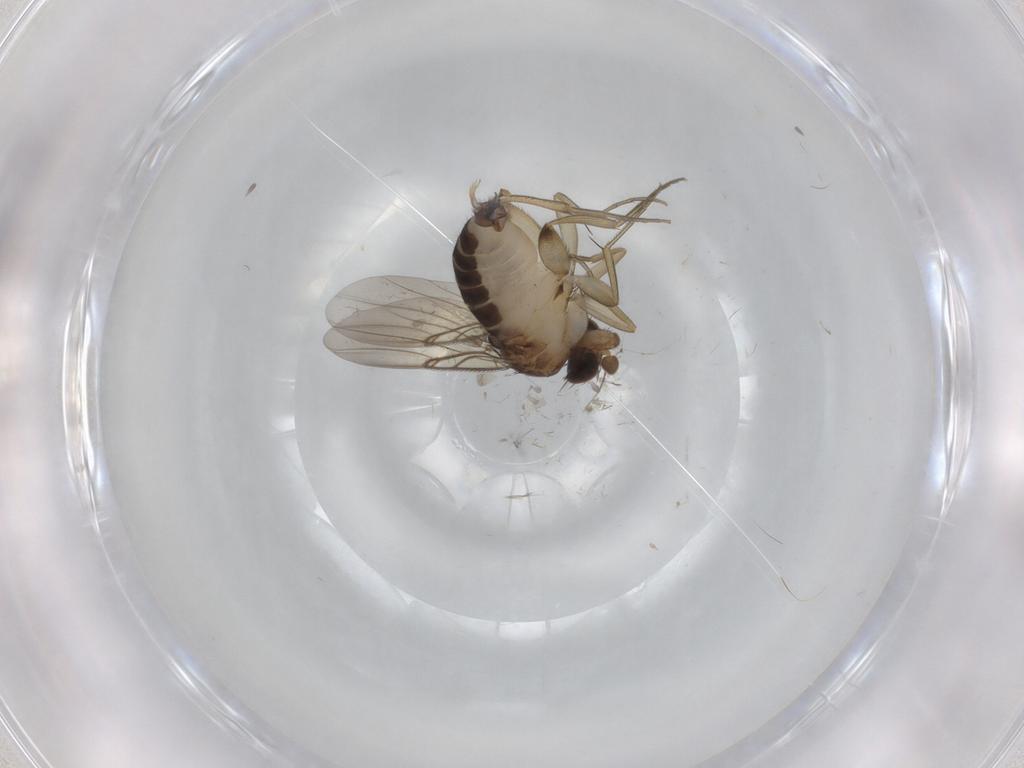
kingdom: Animalia
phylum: Arthropoda
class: Insecta
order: Diptera
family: Phoridae
